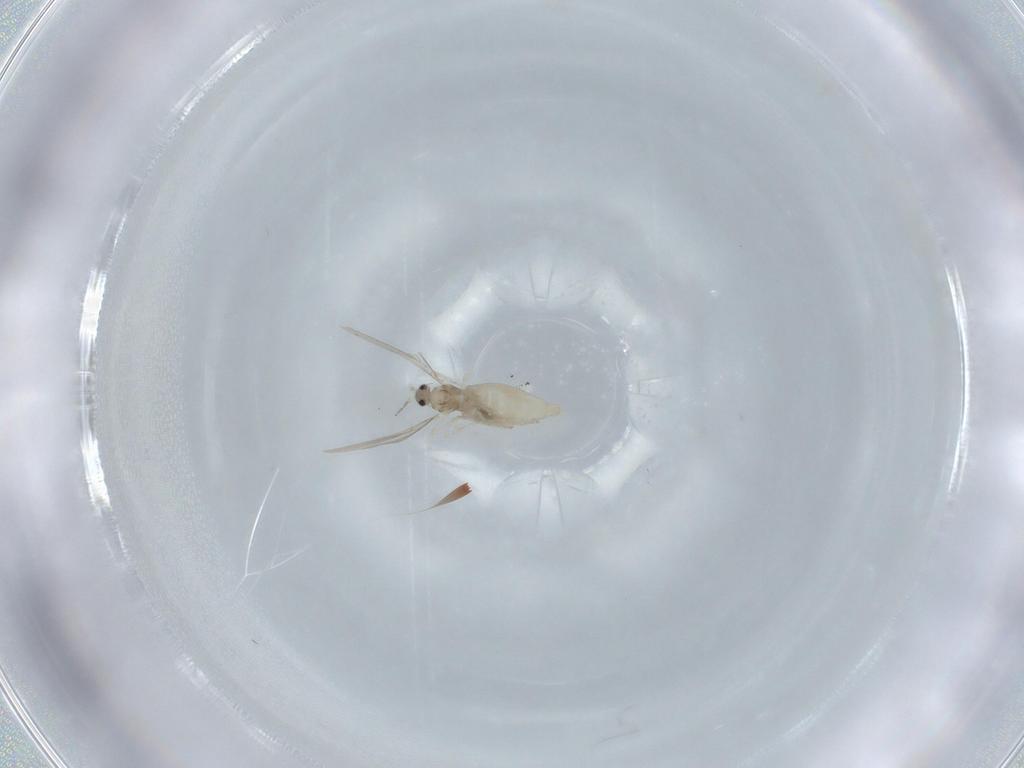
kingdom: Animalia
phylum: Arthropoda
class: Insecta
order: Diptera
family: Cecidomyiidae
